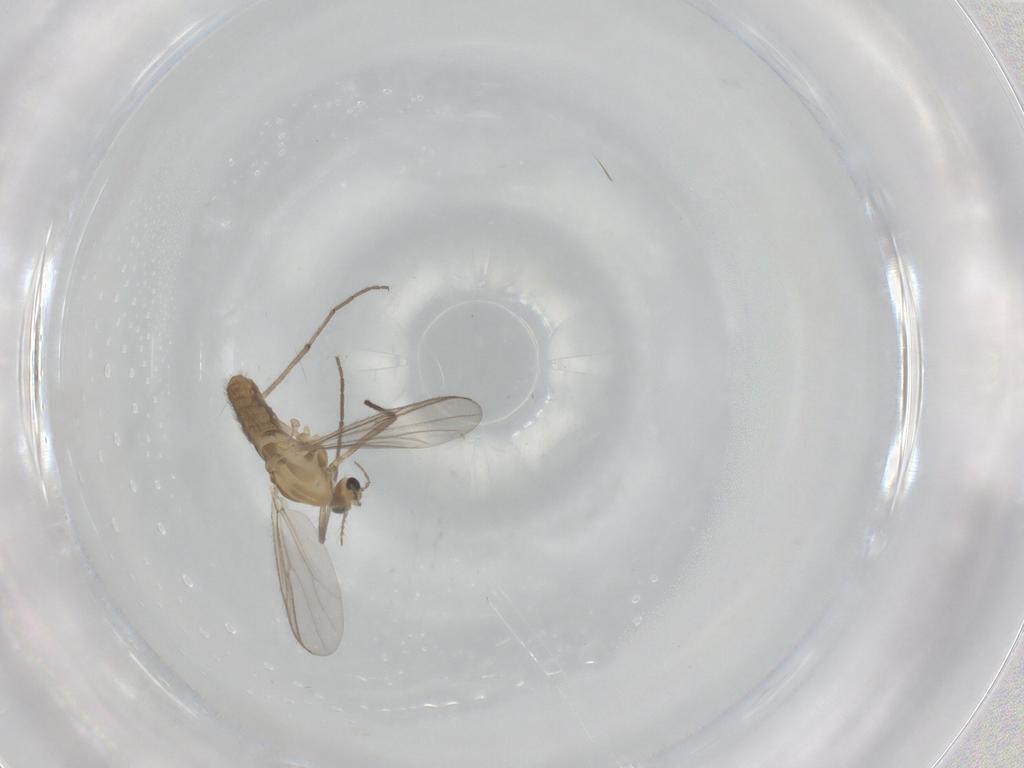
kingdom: Animalia
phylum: Arthropoda
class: Insecta
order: Diptera
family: Chironomidae
